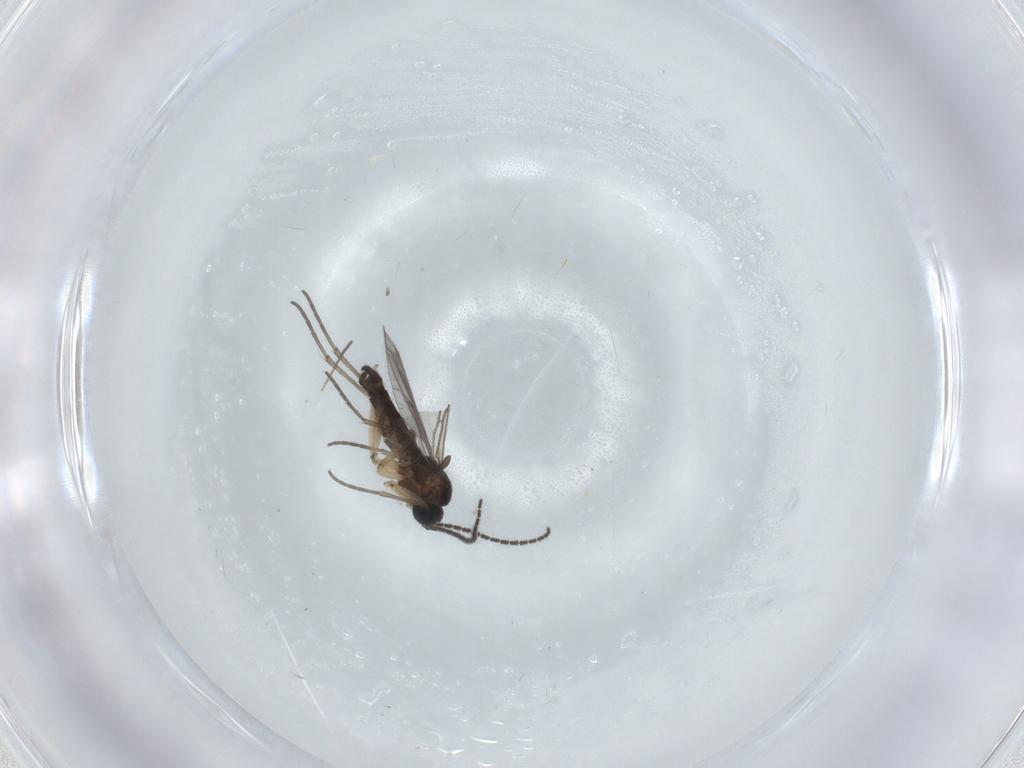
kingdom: Animalia
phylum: Arthropoda
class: Insecta
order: Diptera
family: Sciaridae
